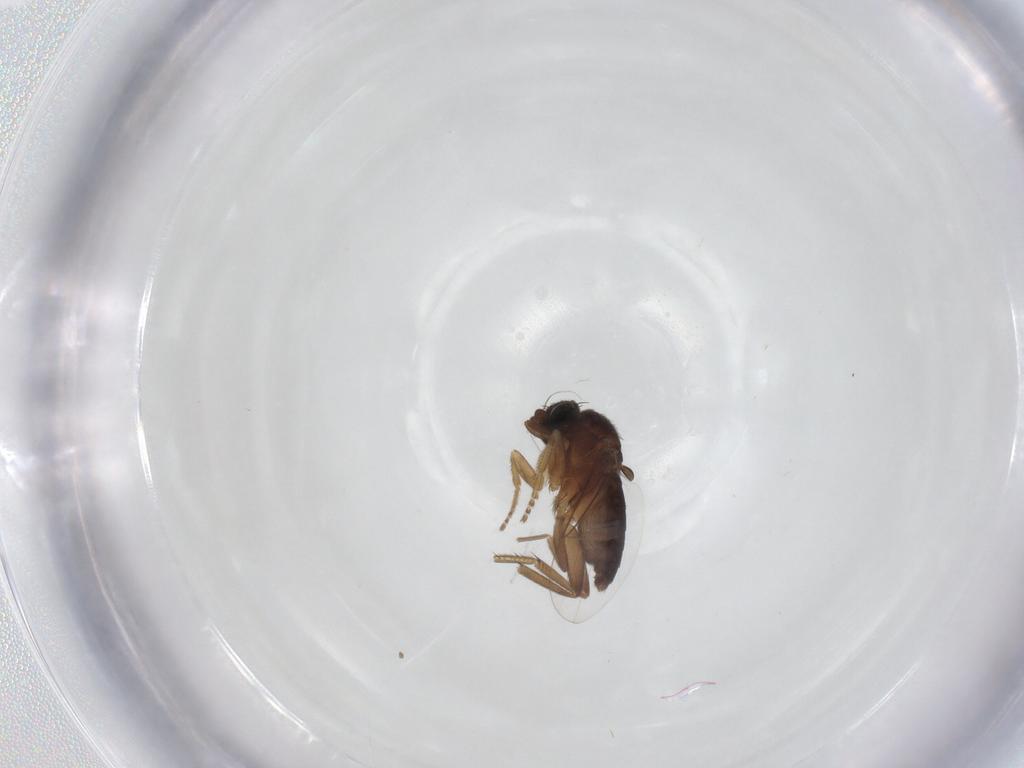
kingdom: Animalia
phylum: Arthropoda
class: Insecta
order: Diptera
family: Phoridae
